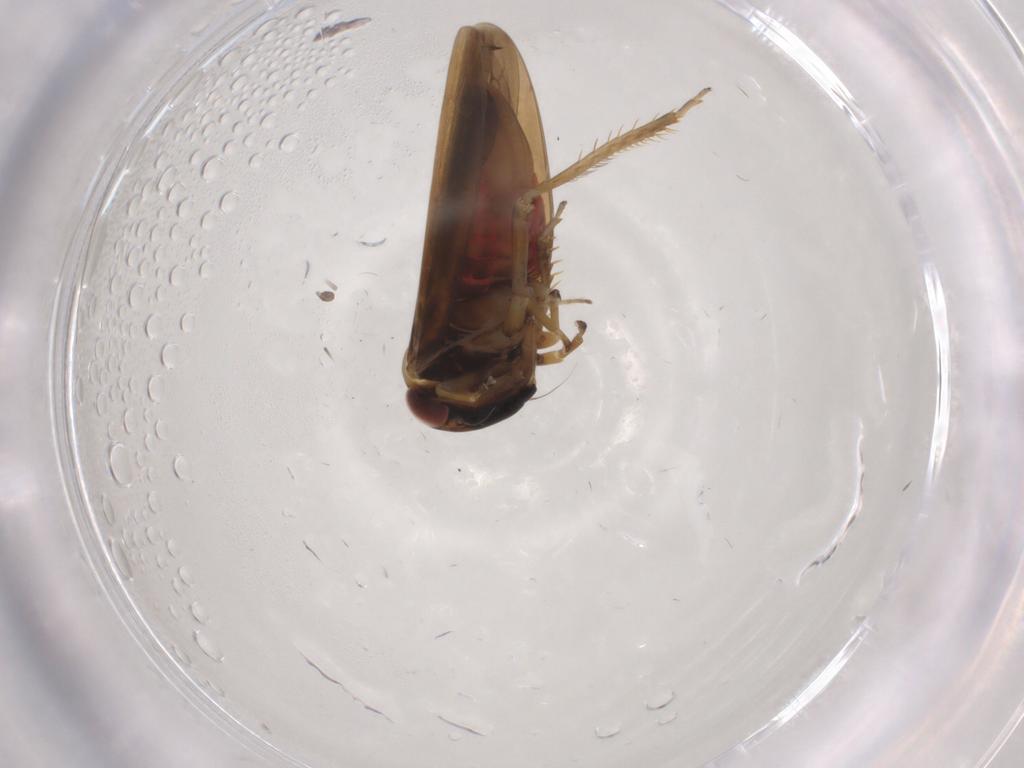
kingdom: Animalia
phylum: Arthropoda
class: Insecta
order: Hemiptera
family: Cicadellidae
